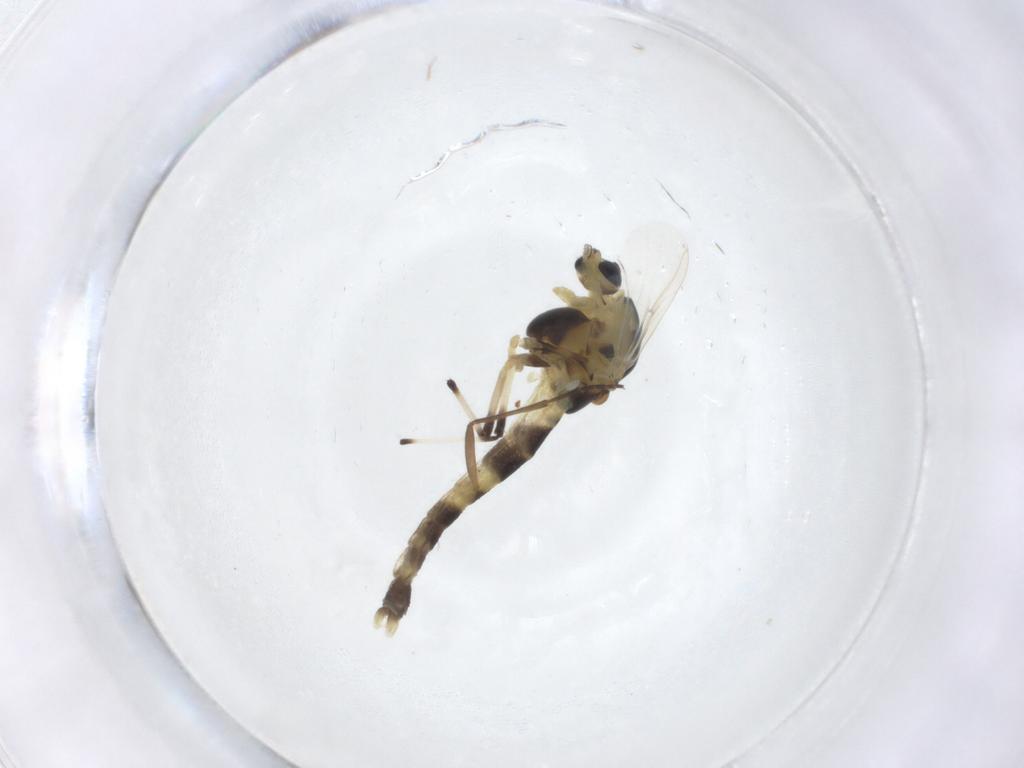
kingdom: Animalia
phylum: Arthropoda
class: Insecta
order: Diptera
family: Chironomidae
